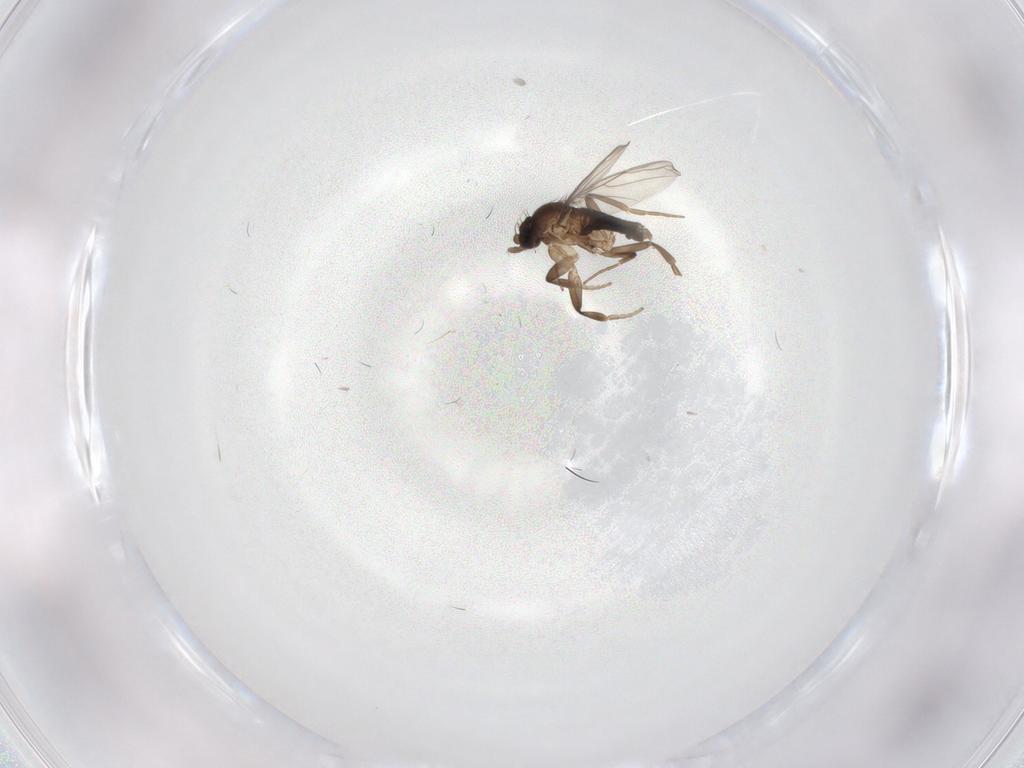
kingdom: Animalia
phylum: Arthropoda
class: Insecta
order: Diptera
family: Phoridae
